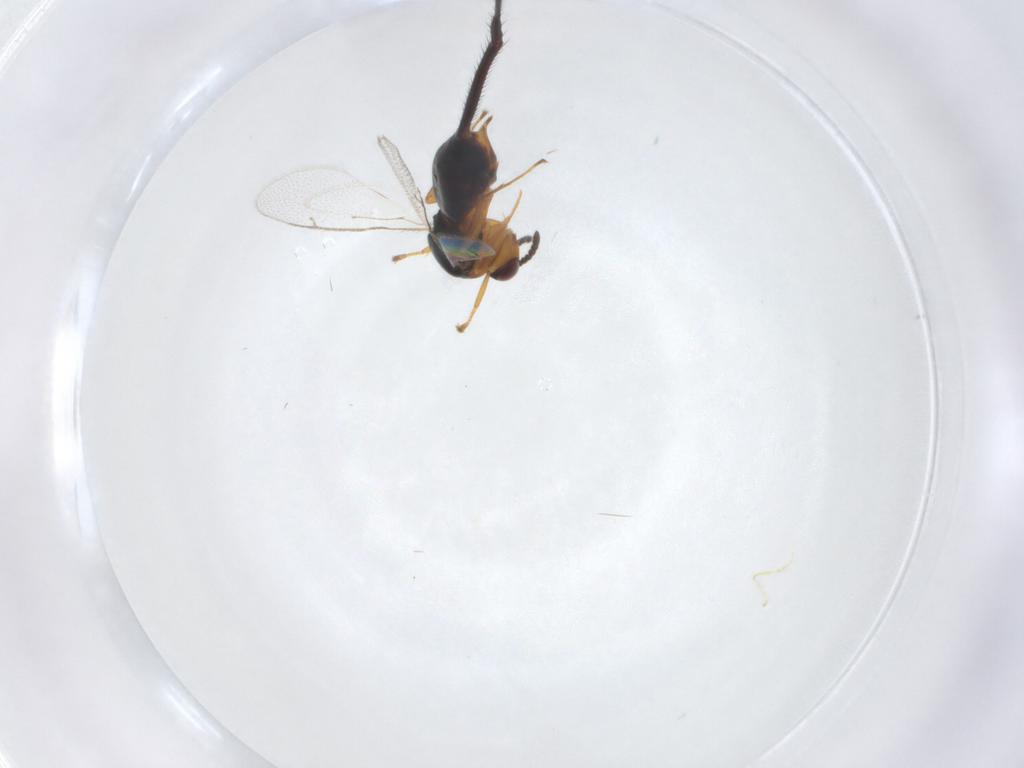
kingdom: Animalia
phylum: Arthropoda
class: Insecta
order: Hymenoptera
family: Agaonidae
